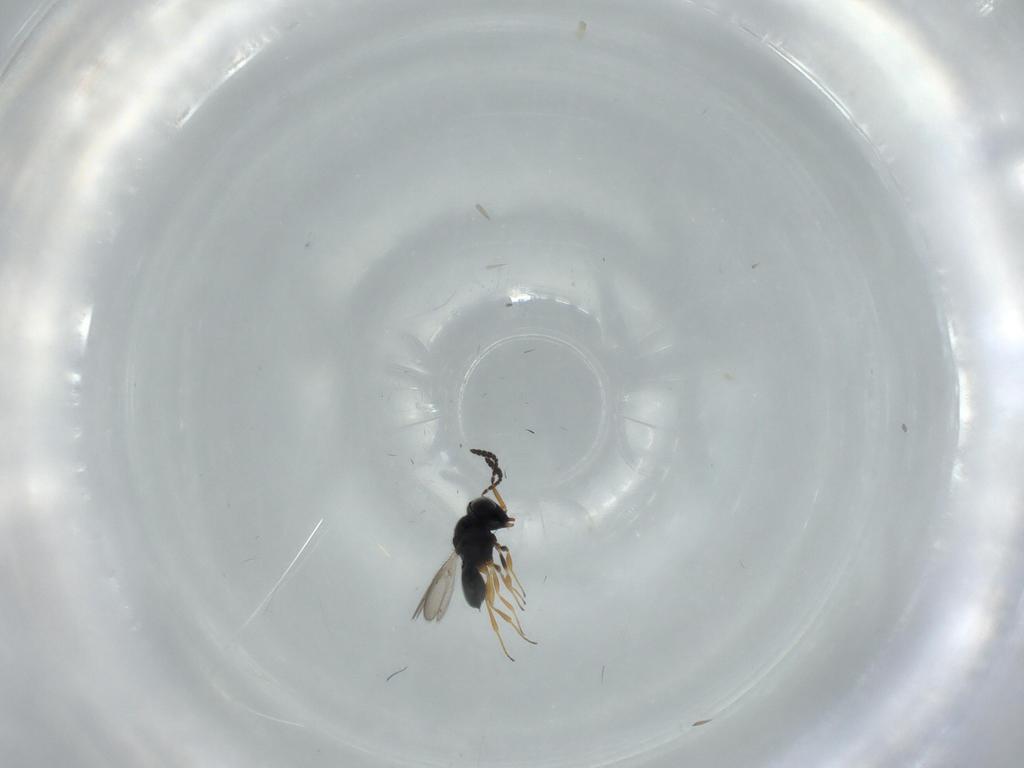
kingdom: Animalia
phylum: Arthropoda
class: Insecta
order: Hymenoptera
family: Scelionidae
